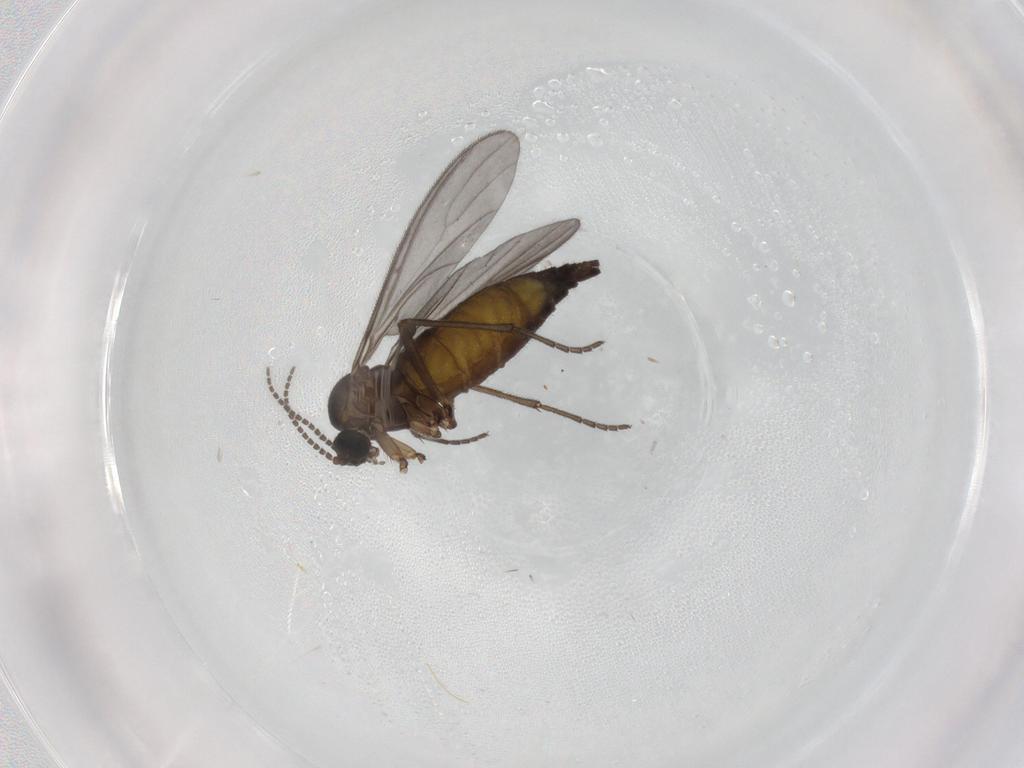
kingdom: Animalia
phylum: Arthropoda
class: Insecta
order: Diptera
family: Sciaridae
